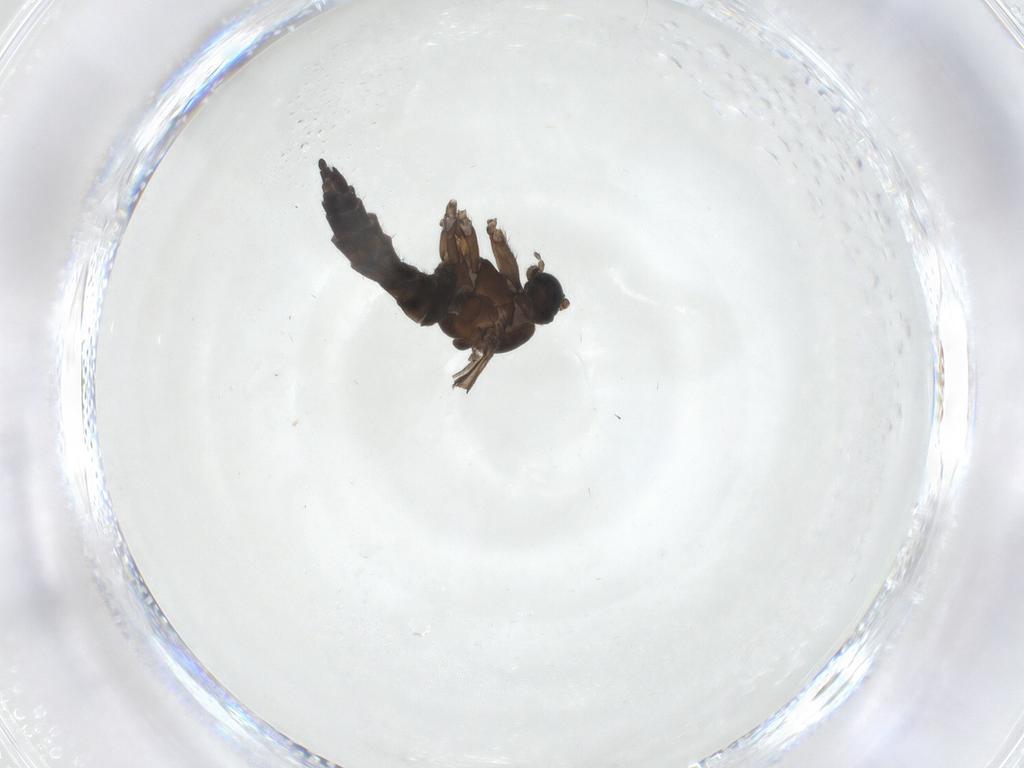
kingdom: Animalia
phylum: Arthropoda
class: Insecta
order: Diptera
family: Sciaridae
